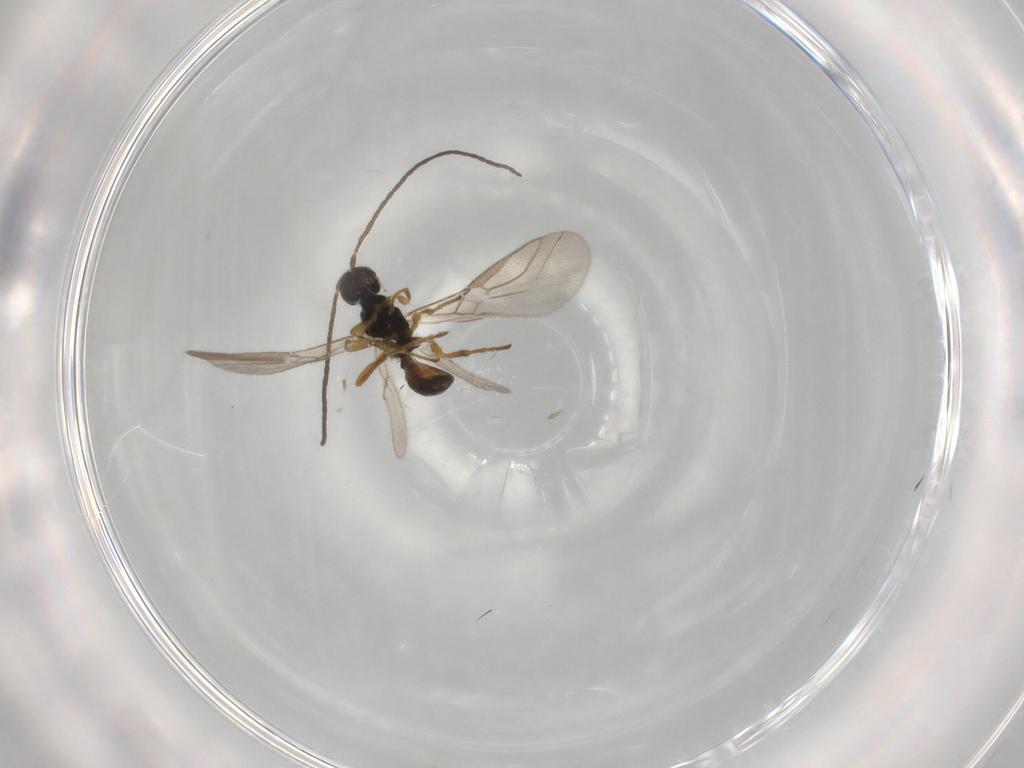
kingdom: Animalia
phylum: Arthropoda
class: Insecta
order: Hymenoptera
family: Braconidae
